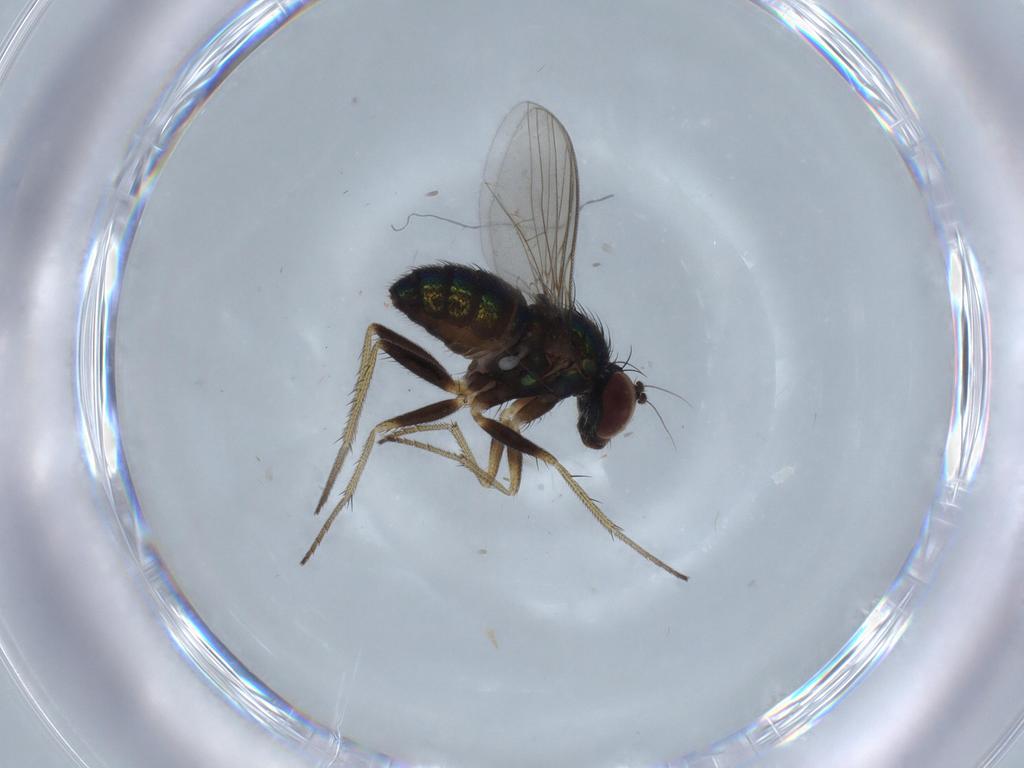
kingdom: Animalia
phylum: Arthropoda
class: Insecta
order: Diptera
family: Dolichopodidae
